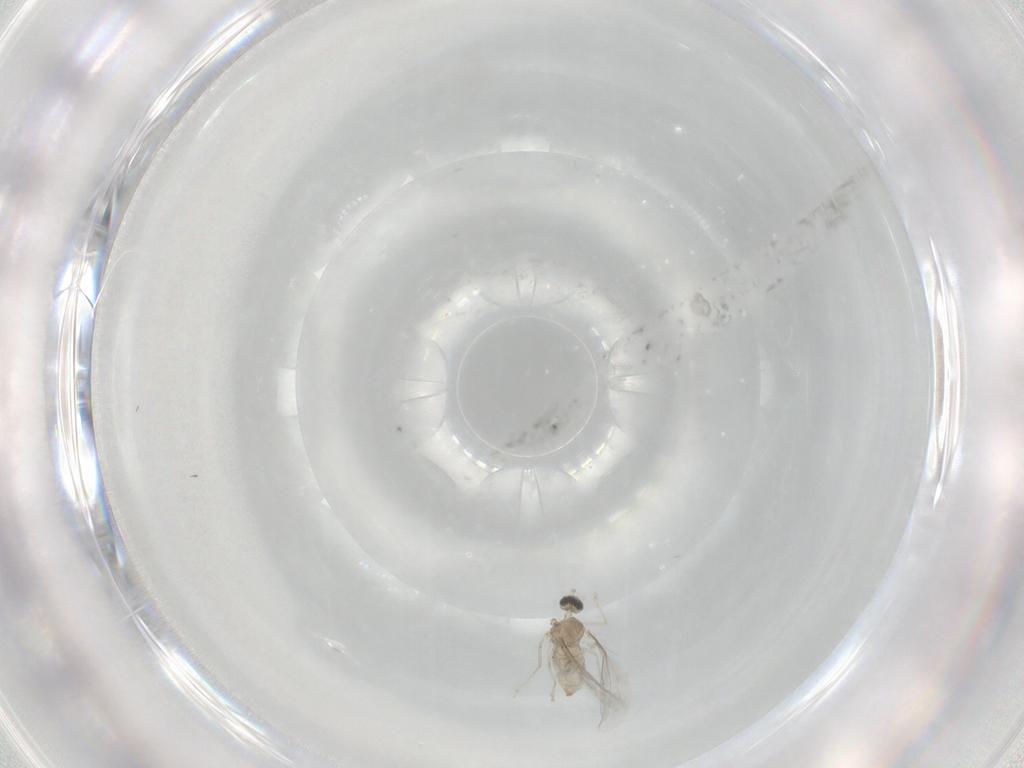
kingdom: Animalia
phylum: Arthropoda
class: Insecta
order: Diptera
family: Cecidomyiidae
